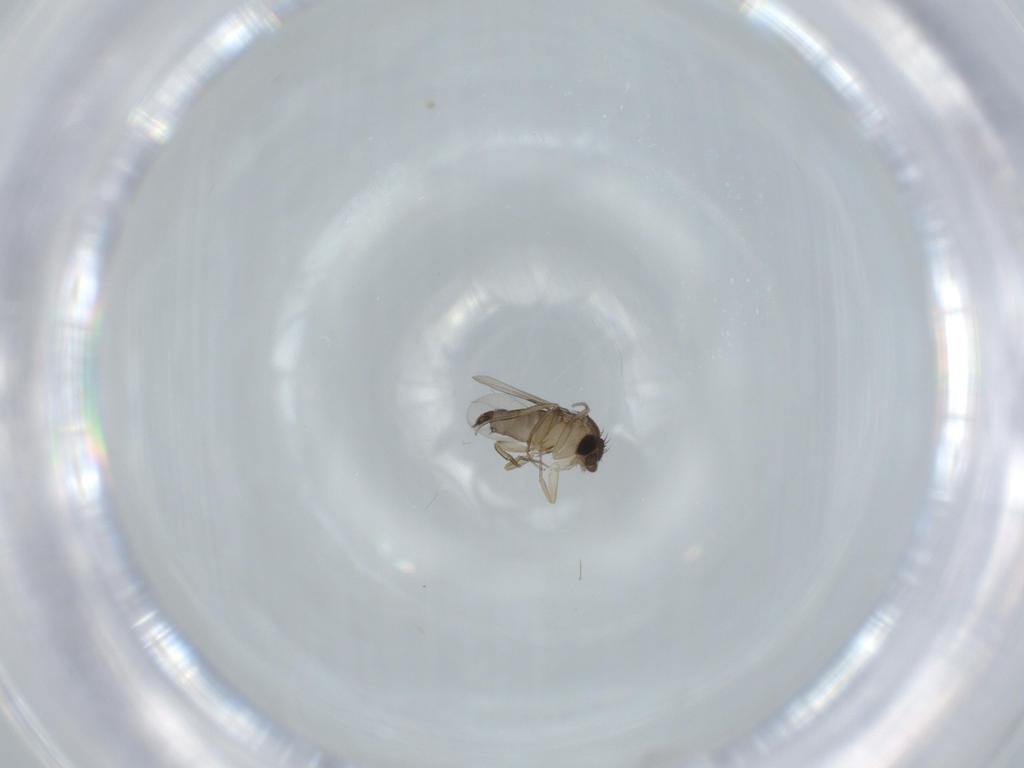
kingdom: Animalia
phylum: Arthropoda
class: Insecta
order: Diptera
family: Phoridae
